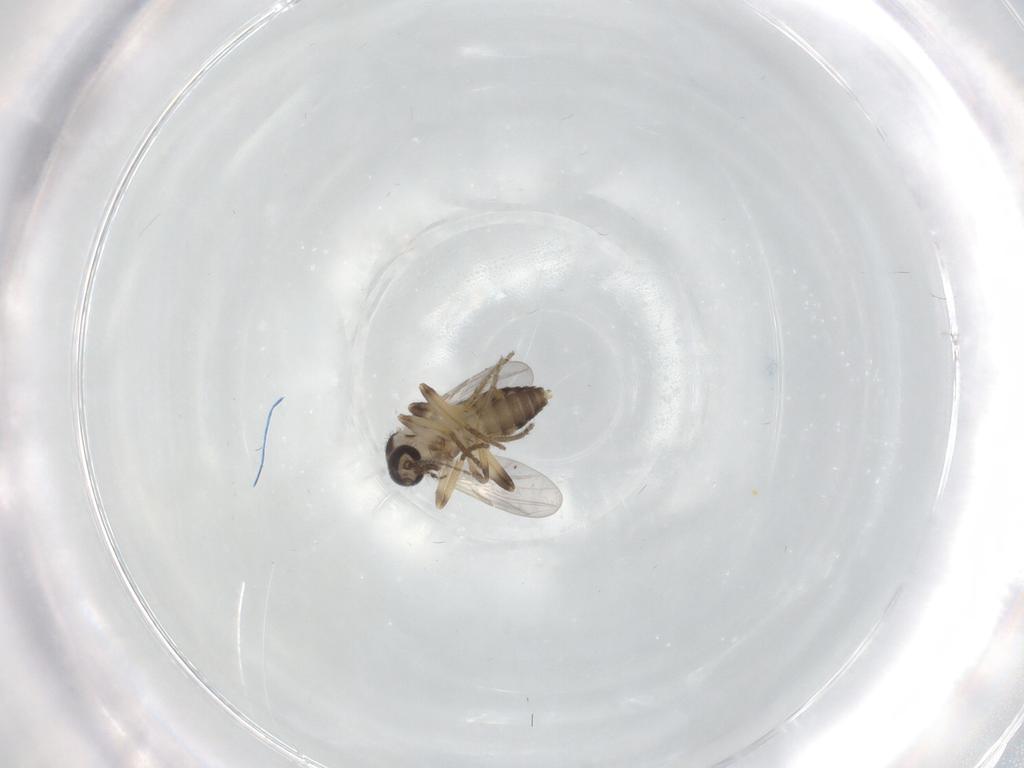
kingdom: Animalia
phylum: Arthropoda
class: Insecta
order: Diptera
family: Ceratopogonidae
